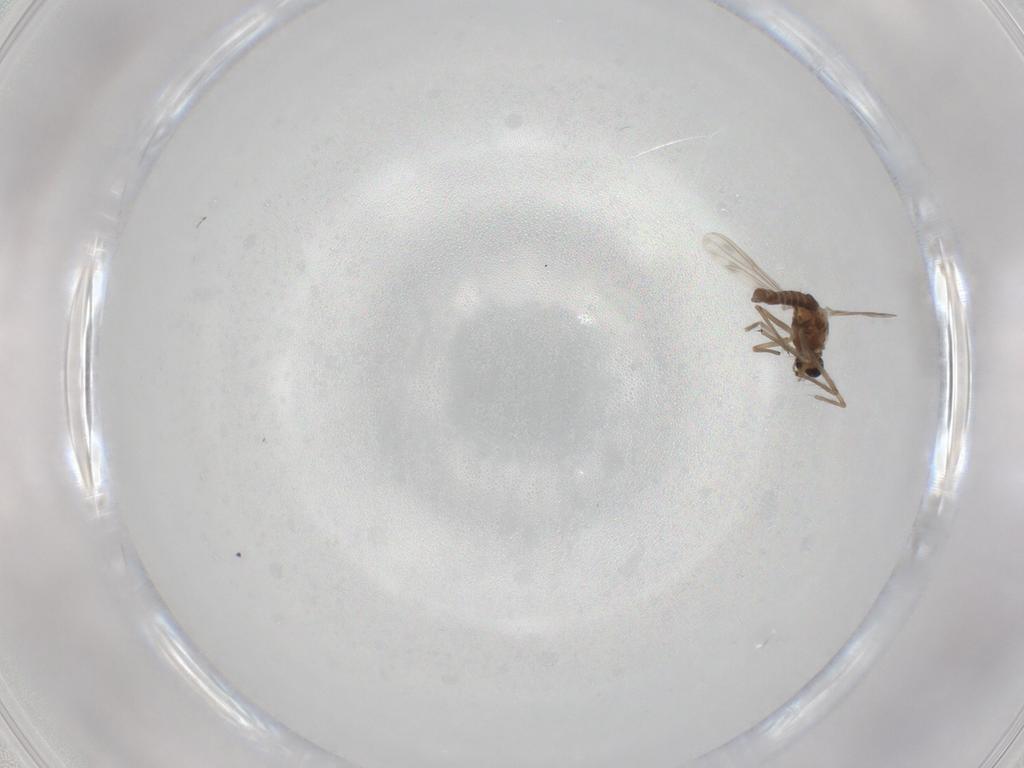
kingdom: Animalia
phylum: Arthropoda
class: Insecta
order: Diptera
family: Chironomidae
